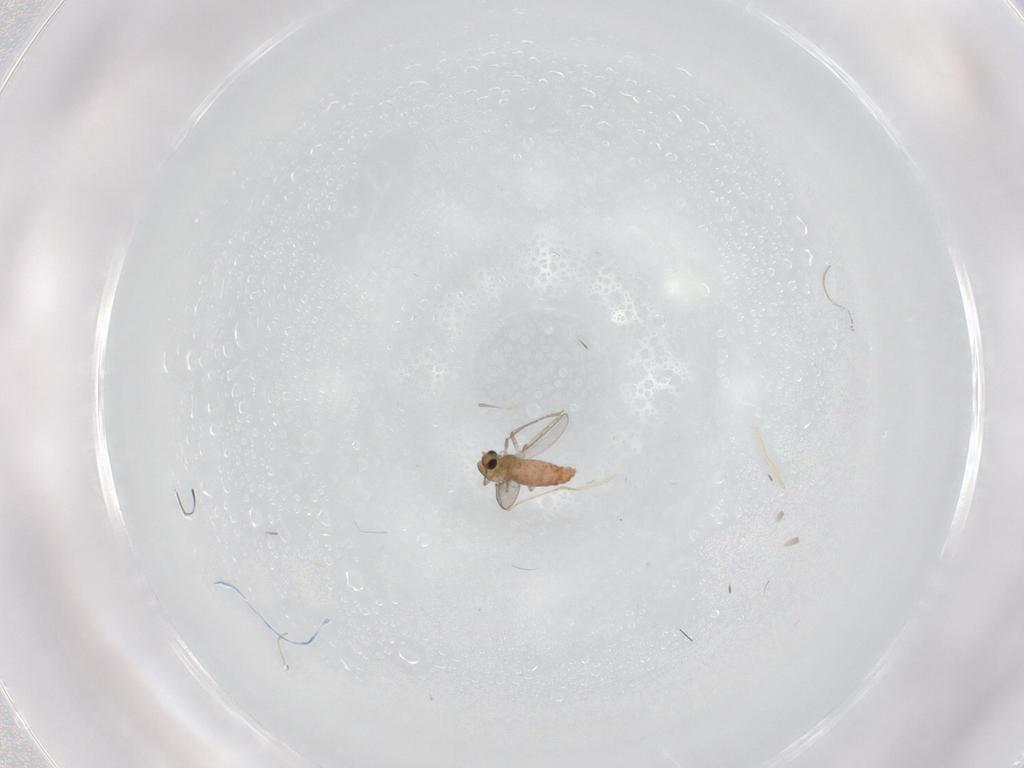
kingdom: Animalia
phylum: Arthropoda
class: Insecta
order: Diptera
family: Chironomidae
